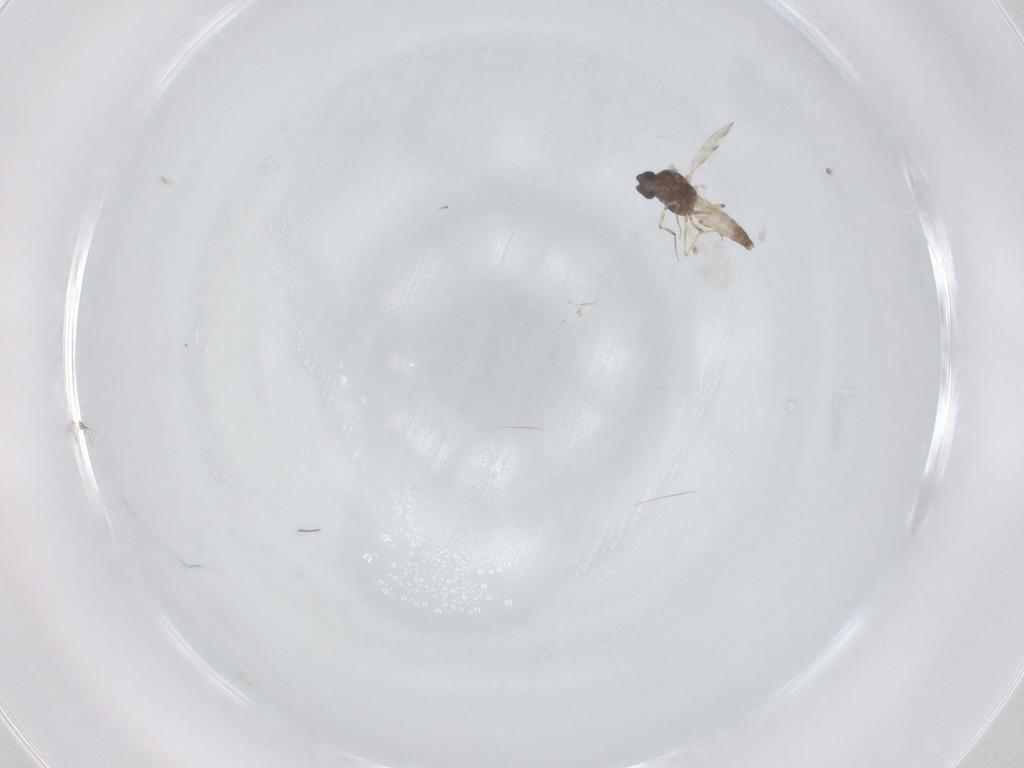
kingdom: Animalia
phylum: Arthropoda
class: Insecta
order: Diptera
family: Chironomidae
